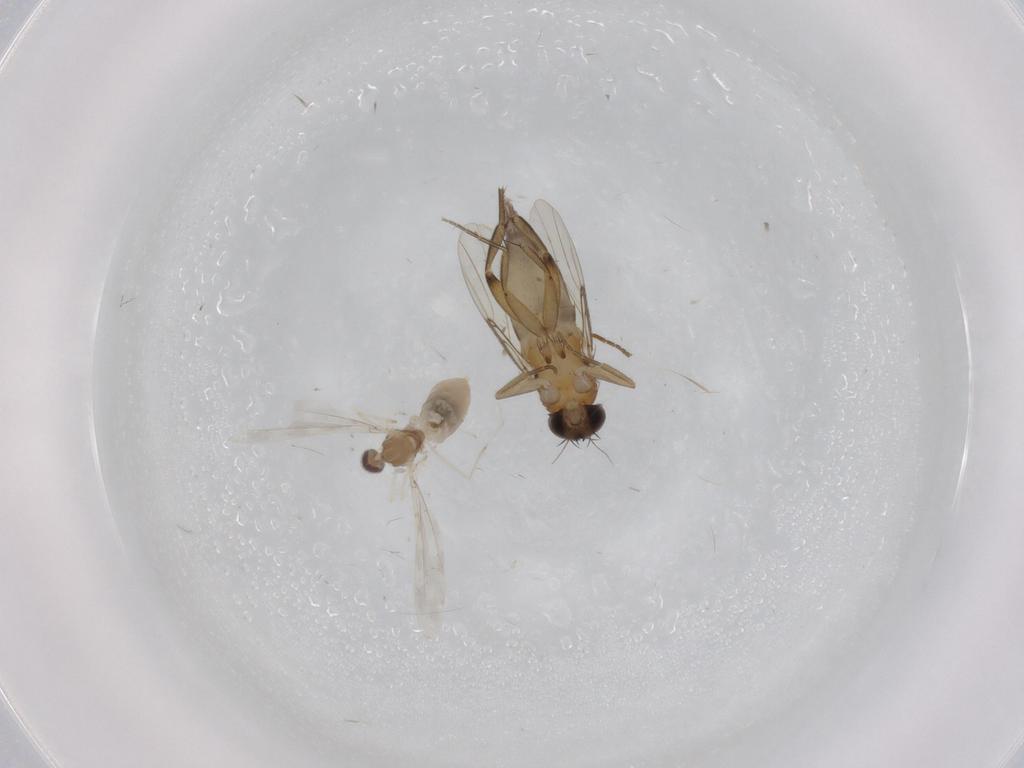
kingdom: Animalia
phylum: Arthropoda
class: Insecta
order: Diptera
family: Phoridae
